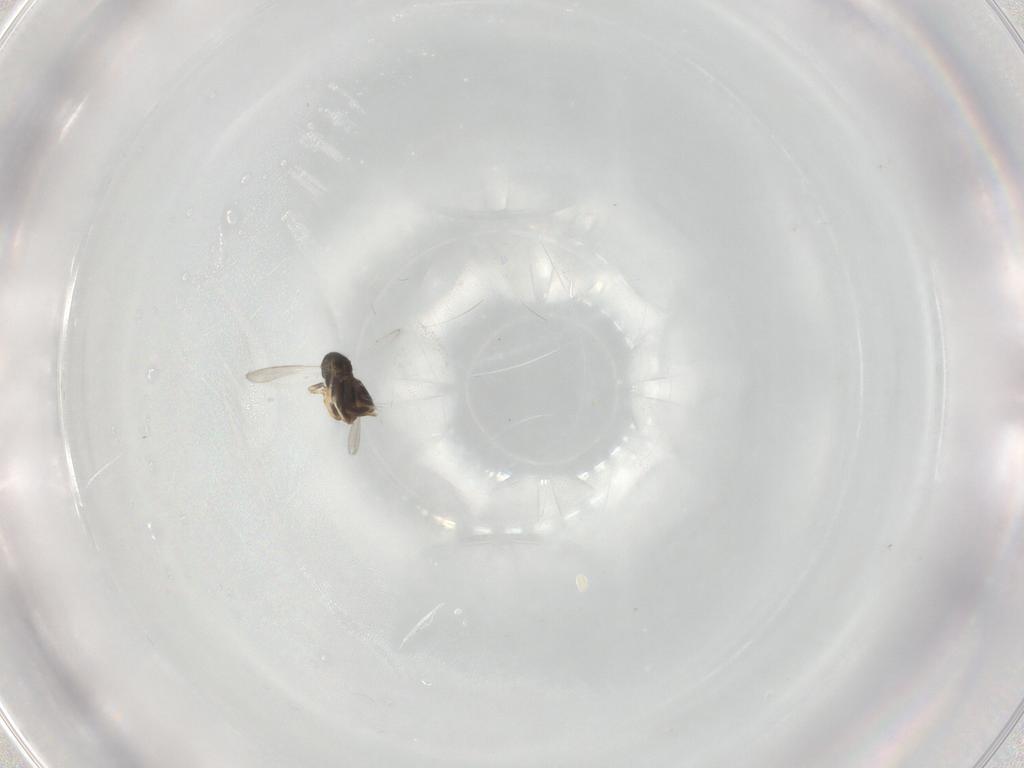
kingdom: Animalia
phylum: Arthropoda
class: Insecta
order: Hymenoptera
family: Aphelinidae
